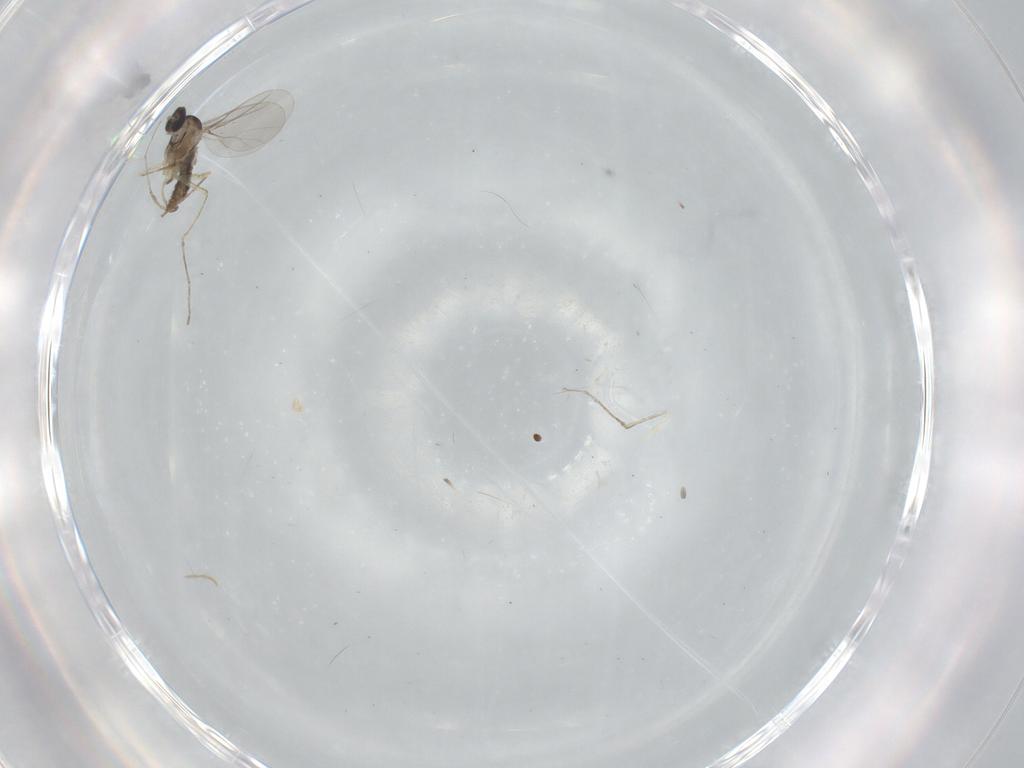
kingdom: Animalia
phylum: Arthropoda
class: Insecta
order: Diptera
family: Cecidomyiidae
